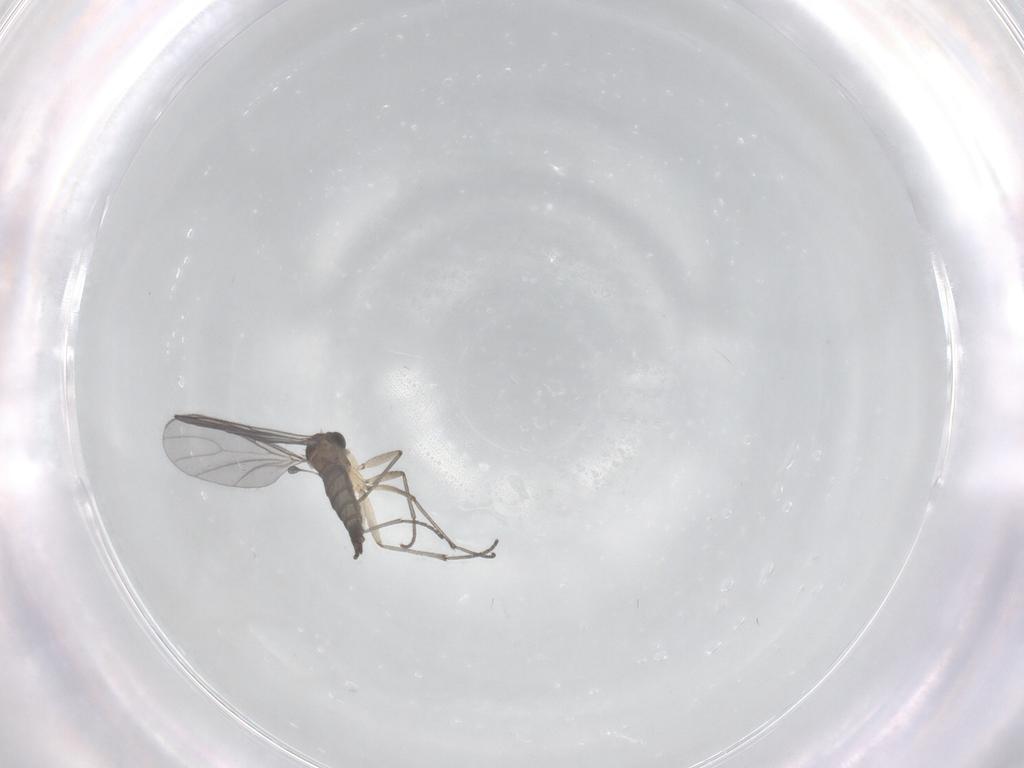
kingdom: Animalia
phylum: Arthropoda
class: Insecta
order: Diptera
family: Sciaridae
